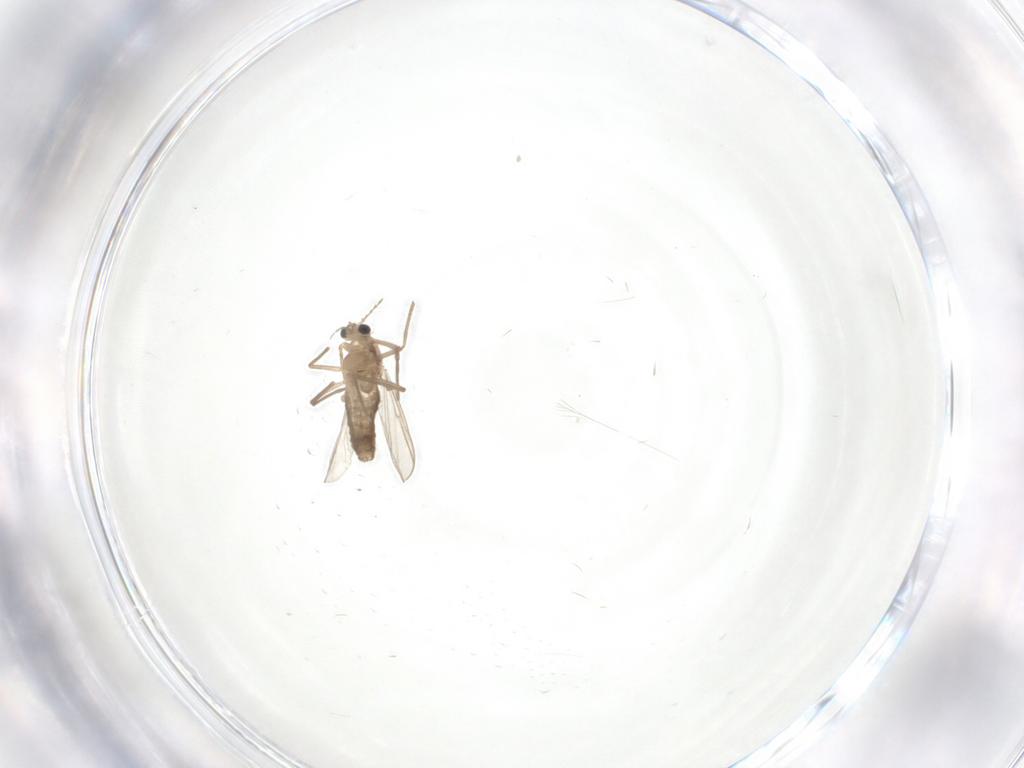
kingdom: Animalia
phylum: Arthropoda
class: Insecta
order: Diptera
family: Chironomidae
